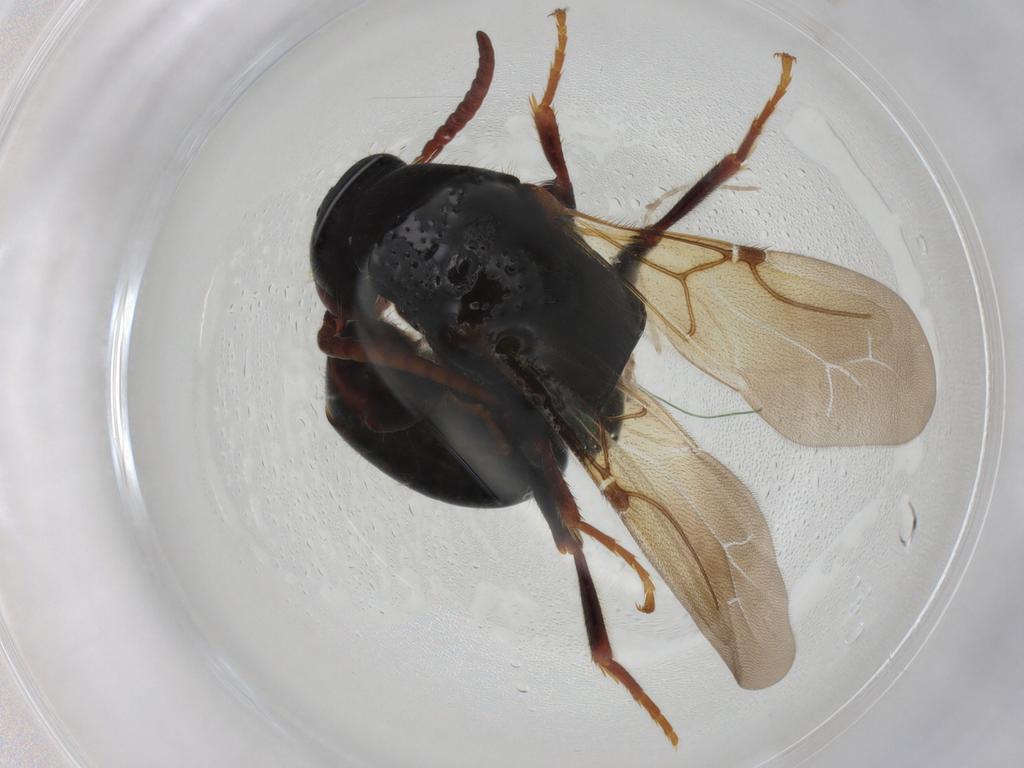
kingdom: Animalia
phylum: Arthropoda
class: Insecta
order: Hymenoptera
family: Bethylidae
